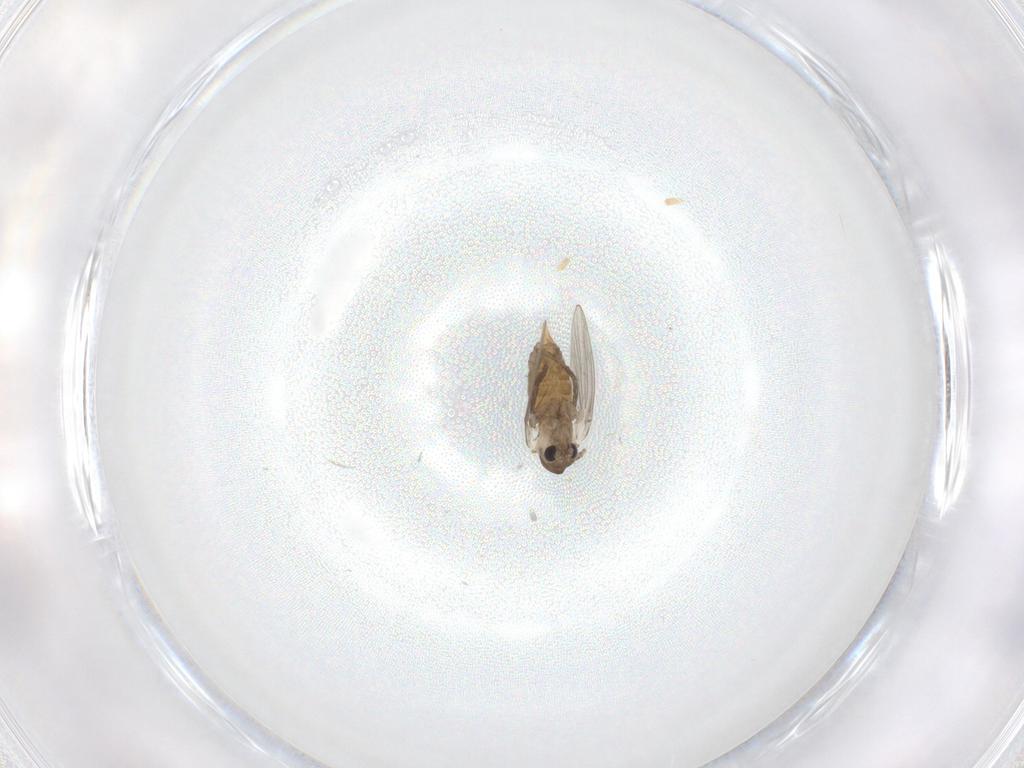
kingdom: Animalia
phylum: Arthropoda
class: Insecta
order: Diptera
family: Psychodidae
